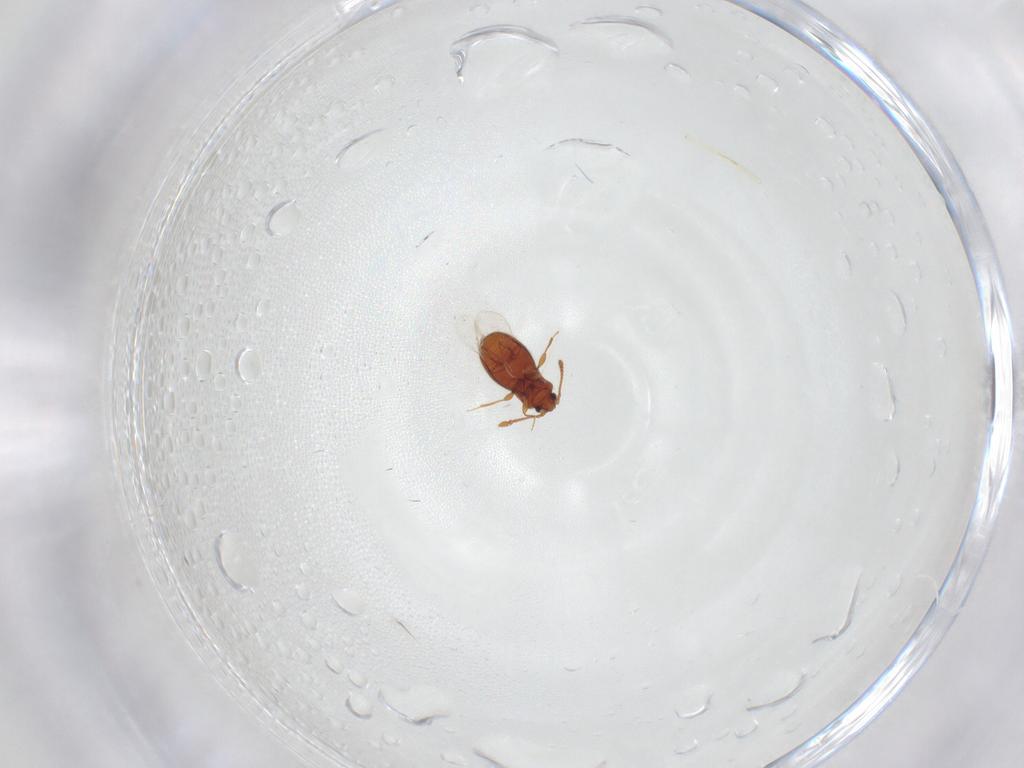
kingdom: Animalia
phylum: Arthropoda
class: Insecta
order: Coleoptera
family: Staphylinidae
